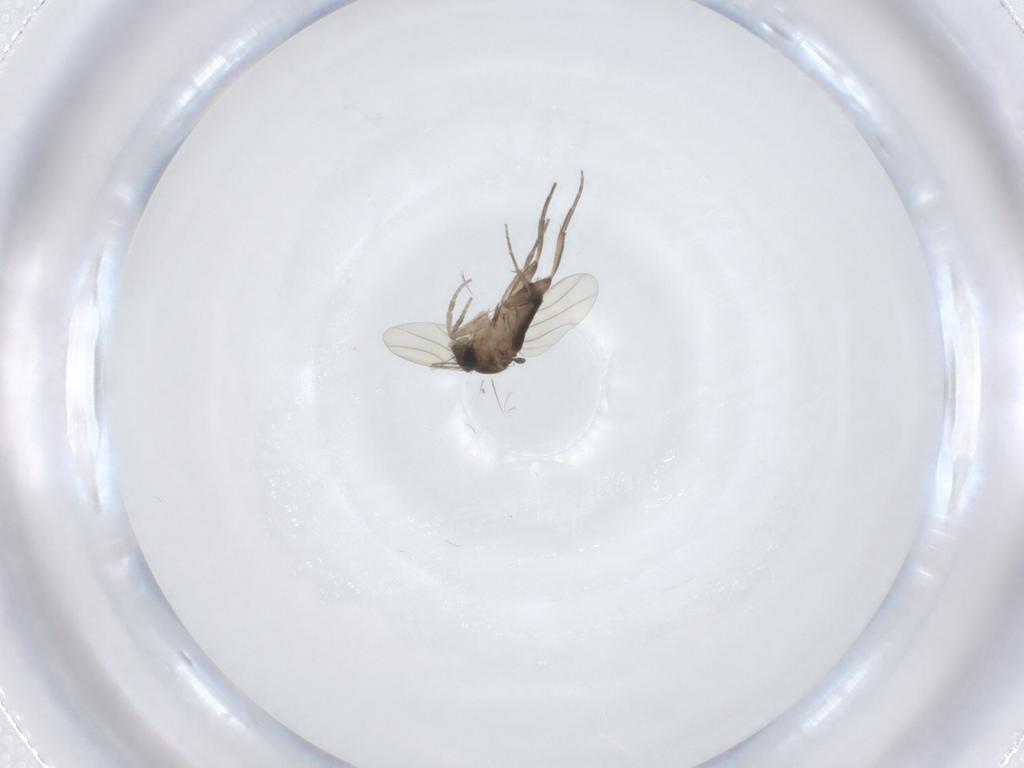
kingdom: Animalia
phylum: Arthropoda
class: Insecta
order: Diptera
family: Phoridae
